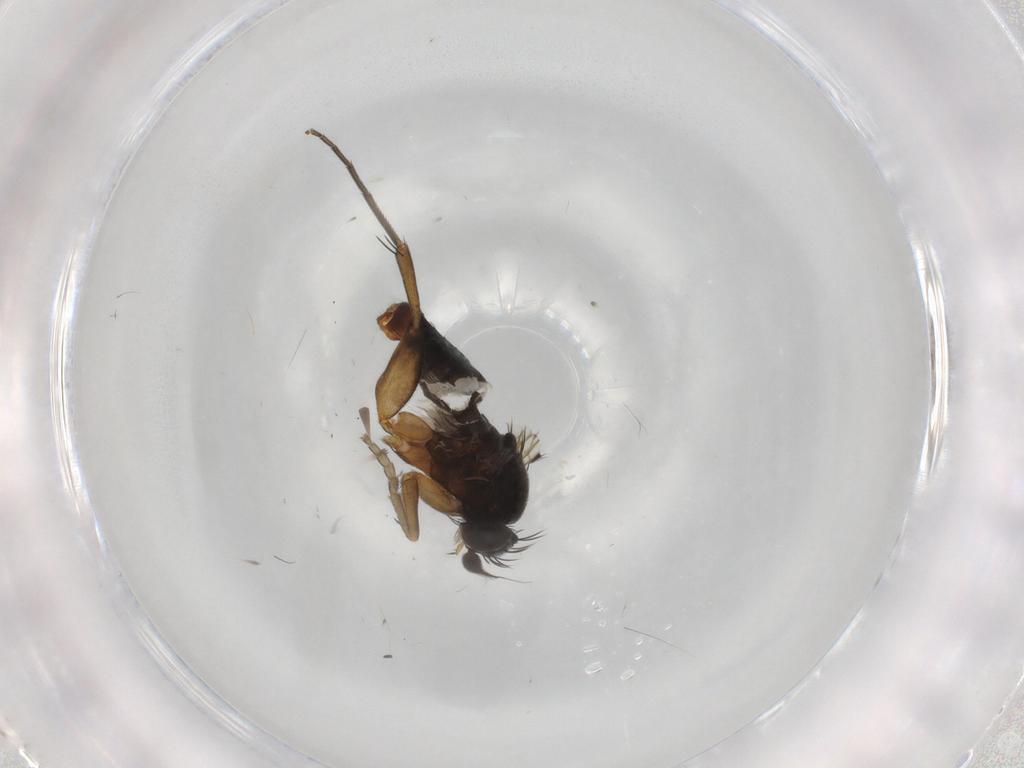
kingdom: Animalia
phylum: Arthropoda
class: Insecta
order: Diptera
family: Phoridae
